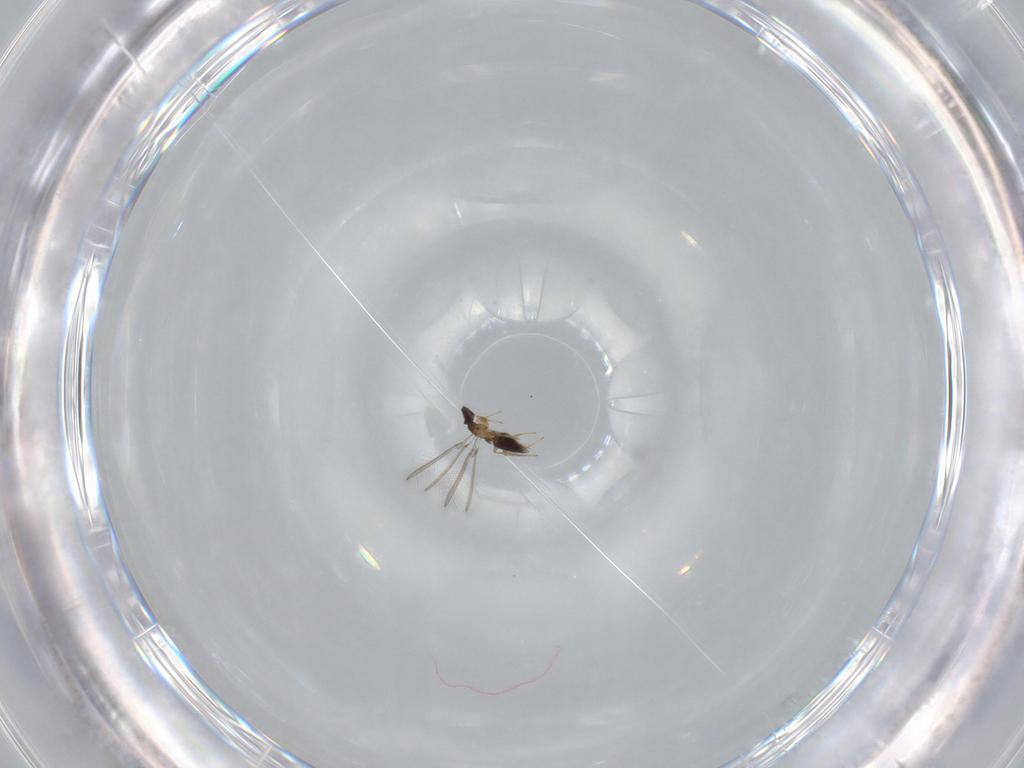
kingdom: Animalia
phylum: Arthropoda
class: Insecta
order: Hymenoptera
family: Mymaridae
